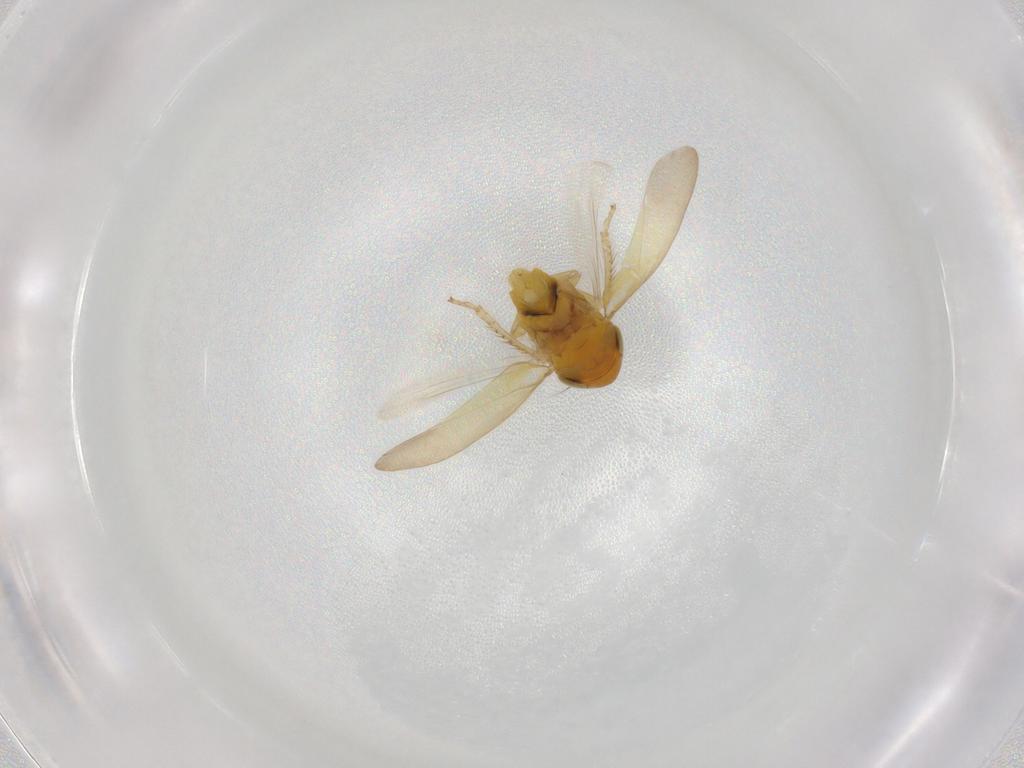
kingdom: Animalia
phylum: Arthropoda
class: Insecta
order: Hemiptera
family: Cicadellidae
